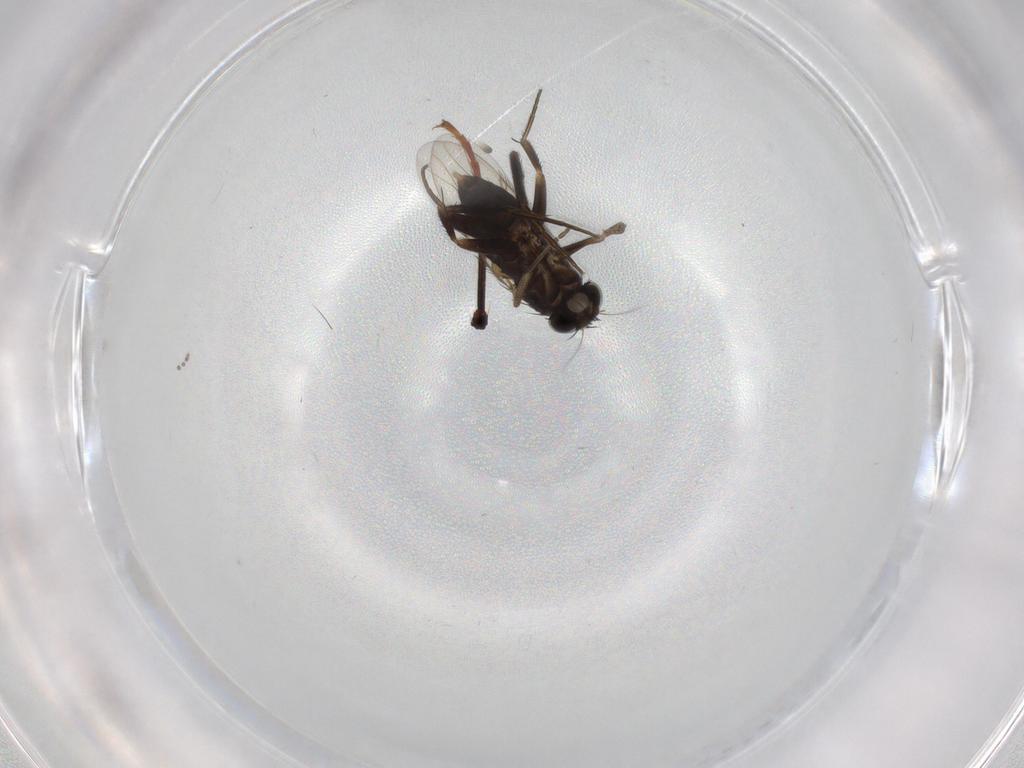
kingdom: Animalia
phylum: Arthropoda
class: Insecta
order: Diptera
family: Phoridae
